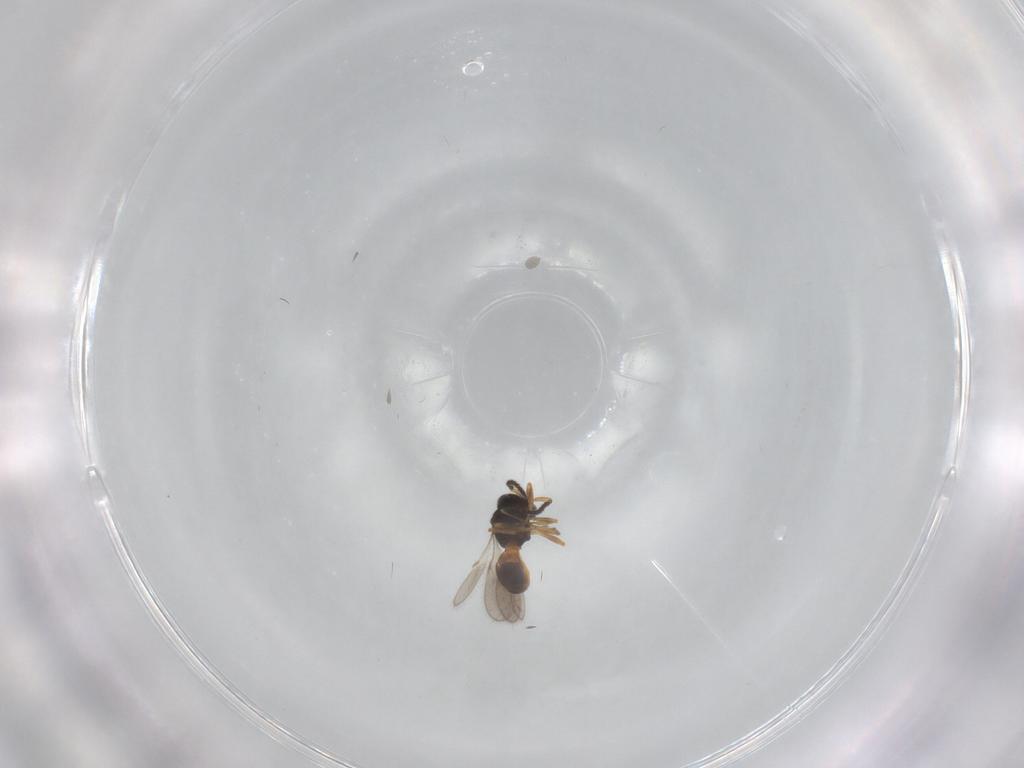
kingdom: Animalia
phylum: Arthropoda
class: Insecta
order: Hymenoptera
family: Scelionidae
